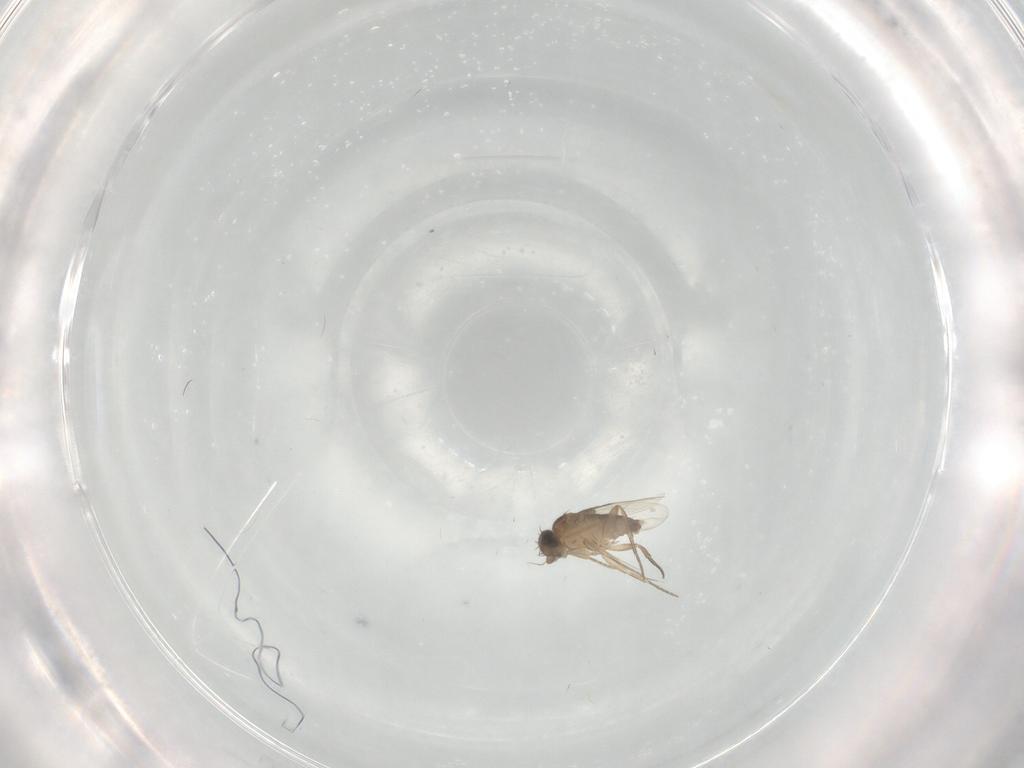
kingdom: Animalia
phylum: Arthropoda
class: Insecta
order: Diptera
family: Phoridae
